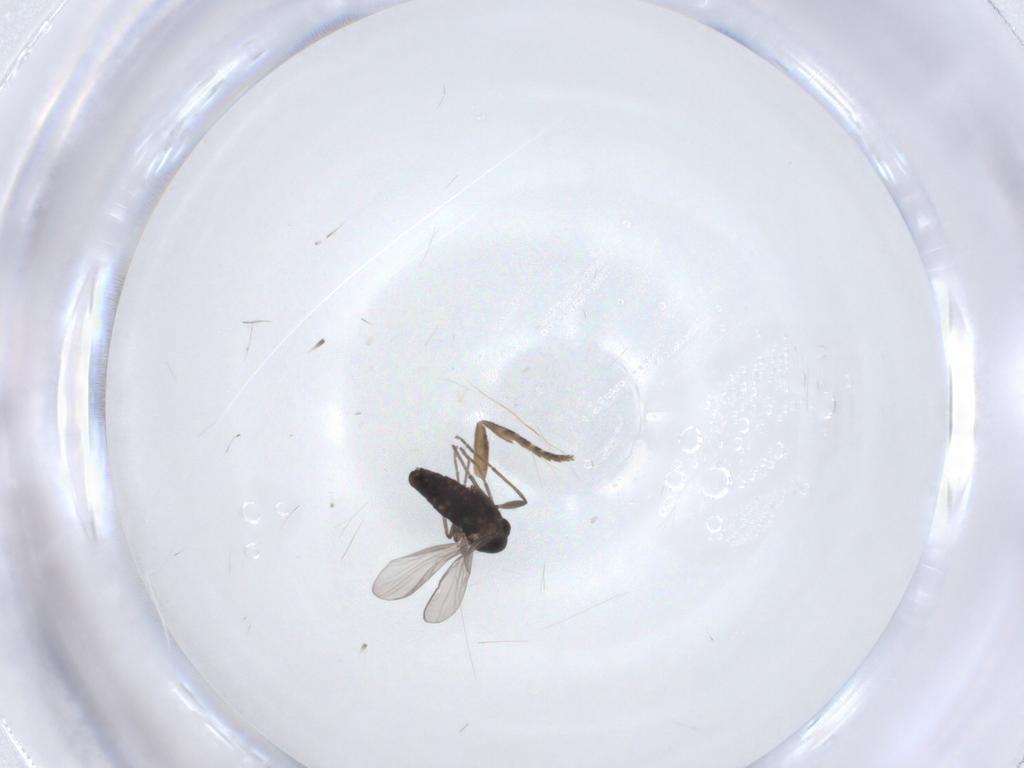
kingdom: Animalia
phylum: Arthropoda
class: Insecta
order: Diptera
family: Chironomidae
